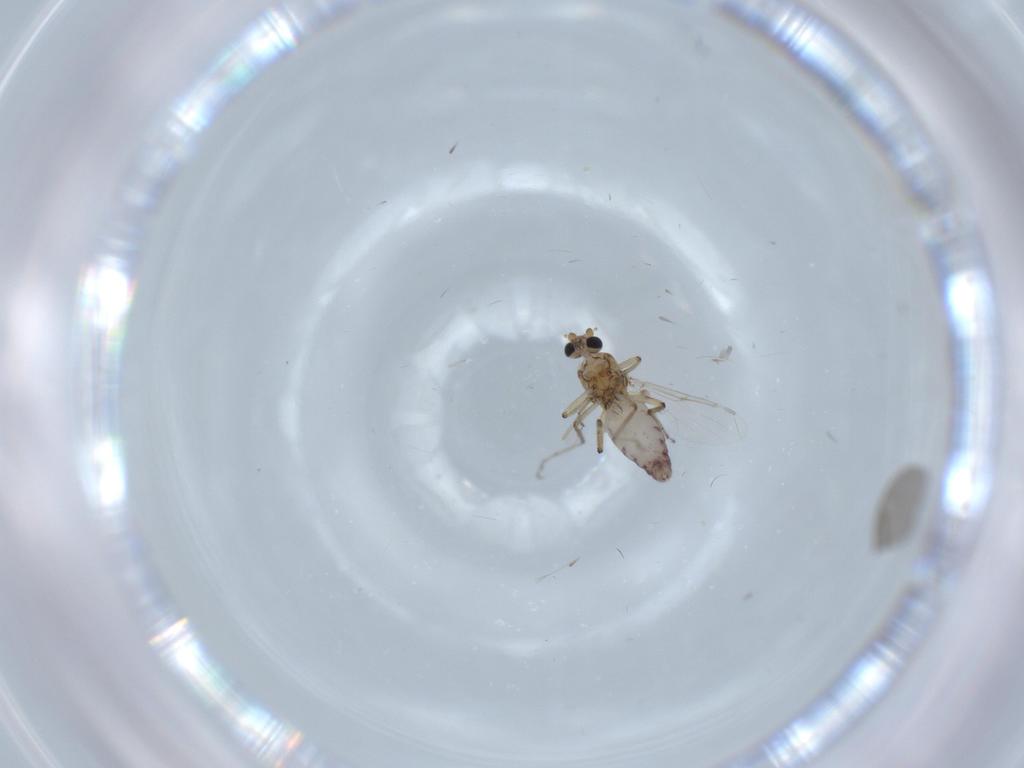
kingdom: Animalia
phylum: Arthropoda
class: Insecta
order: Diptera
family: Ceratopogonidae
